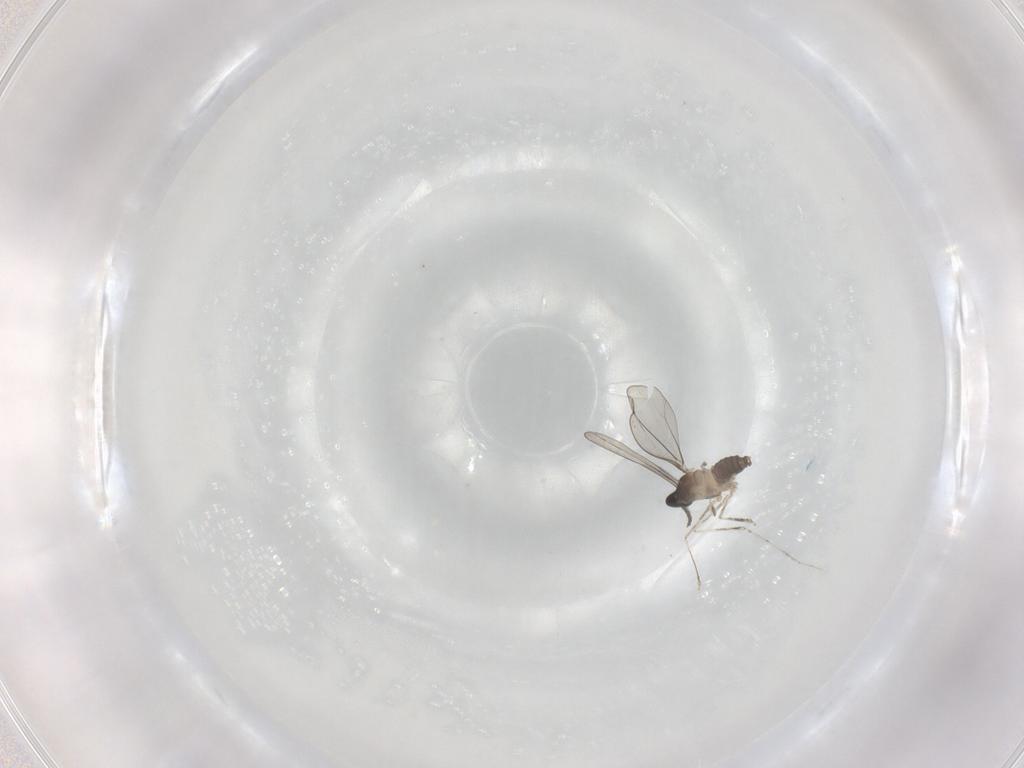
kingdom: Animalia
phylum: Arthropoda
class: Insecta
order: Diptera
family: Cecidomyiidae
